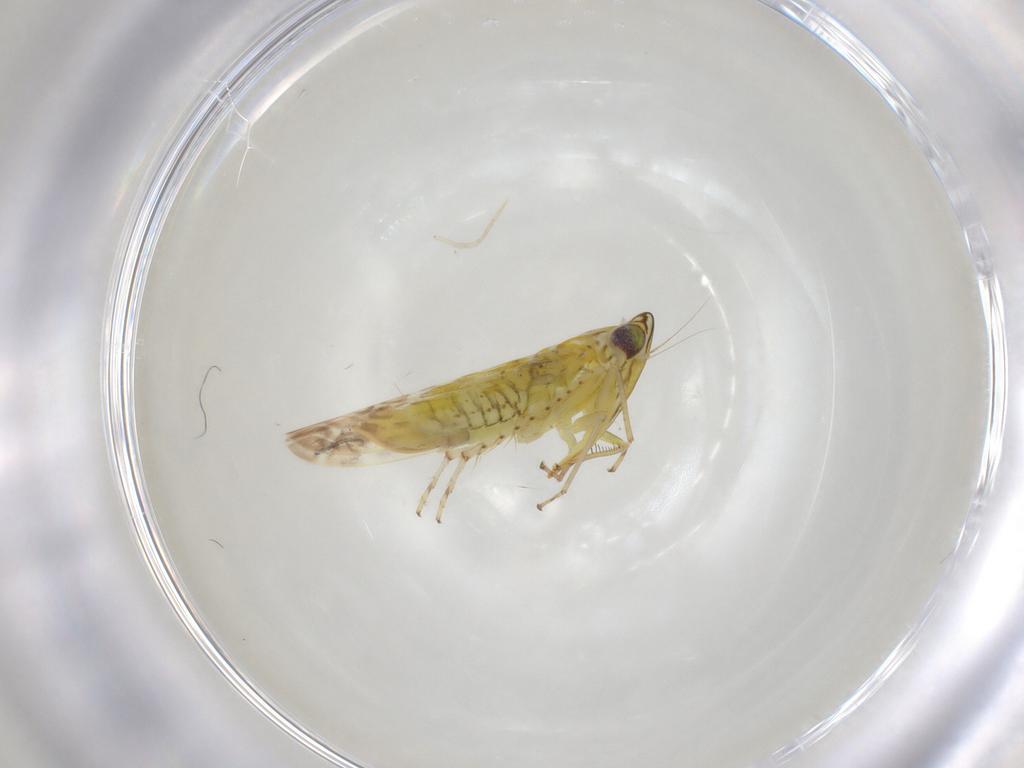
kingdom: Animalia
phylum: Arthropoda
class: Insecta
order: Hemiptera
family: Cicadellidae
